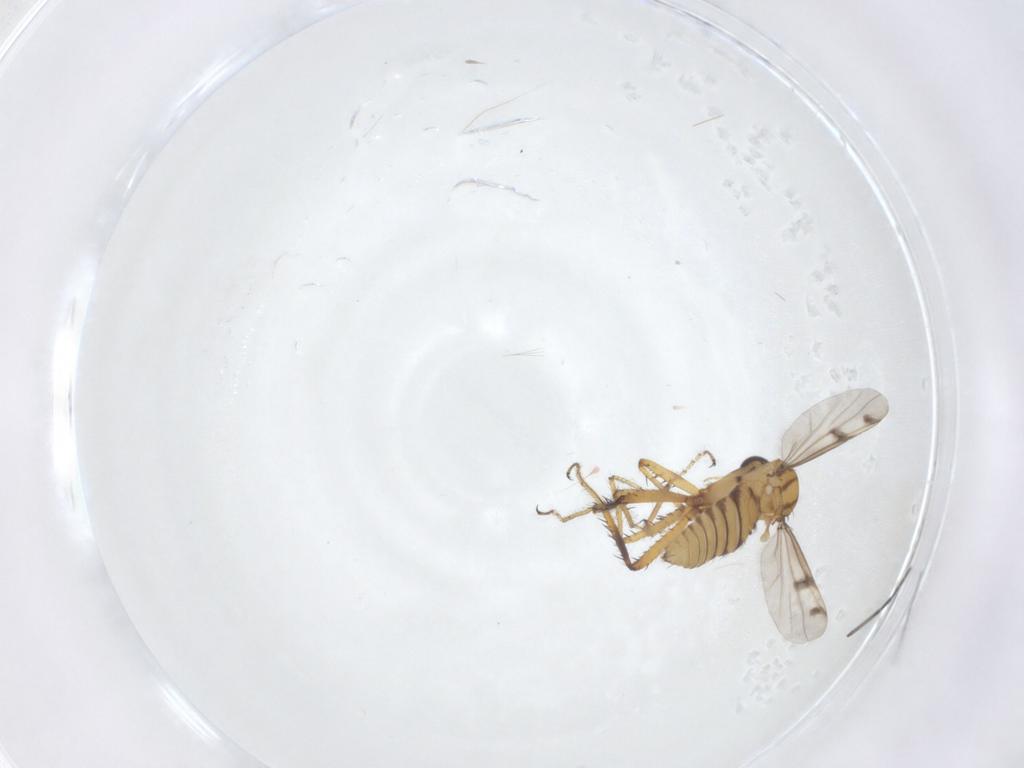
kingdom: Animalia
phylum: Arthropoda
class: Insecta
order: Diptera
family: Ceratopogonidae
